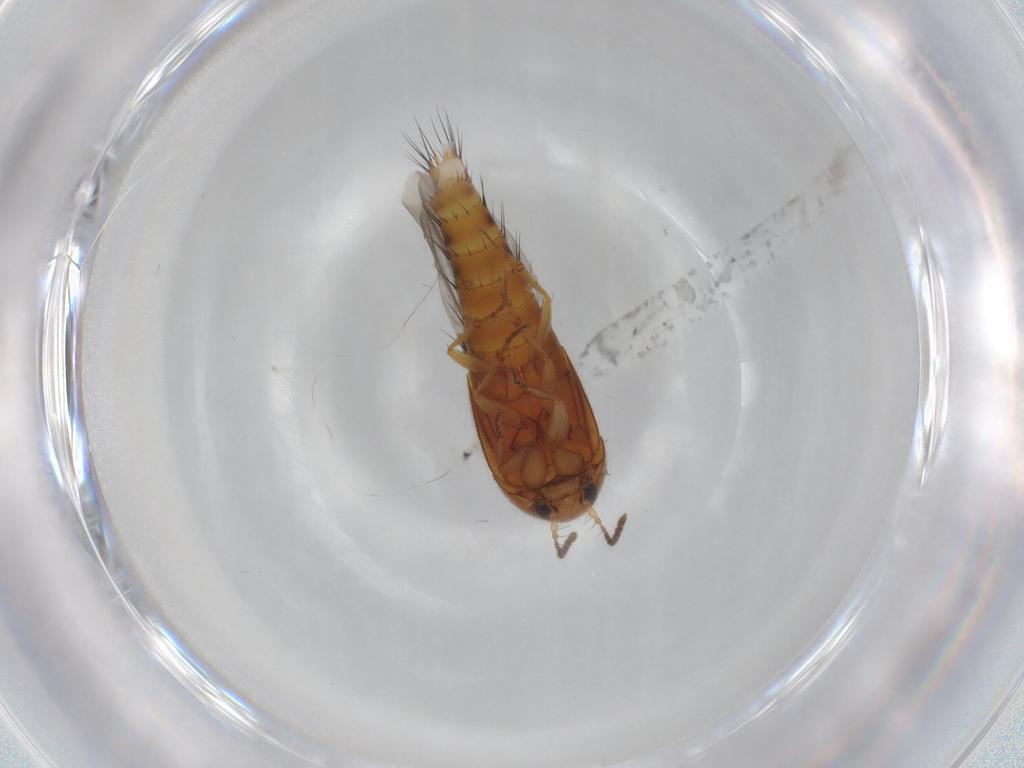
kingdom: Animalia
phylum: Arthropoda
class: Insecta
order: Coleoptera
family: Staphylinidae
